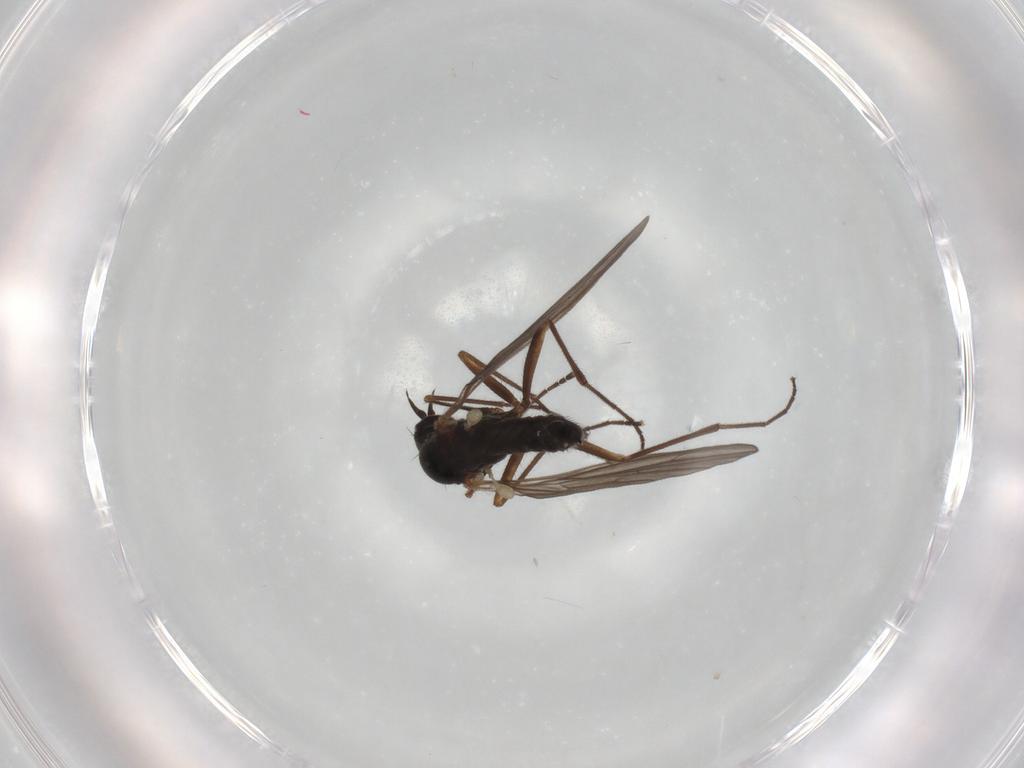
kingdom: Animalia
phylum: Arthropoda
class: Insecta
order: Diptera
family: Empididae
